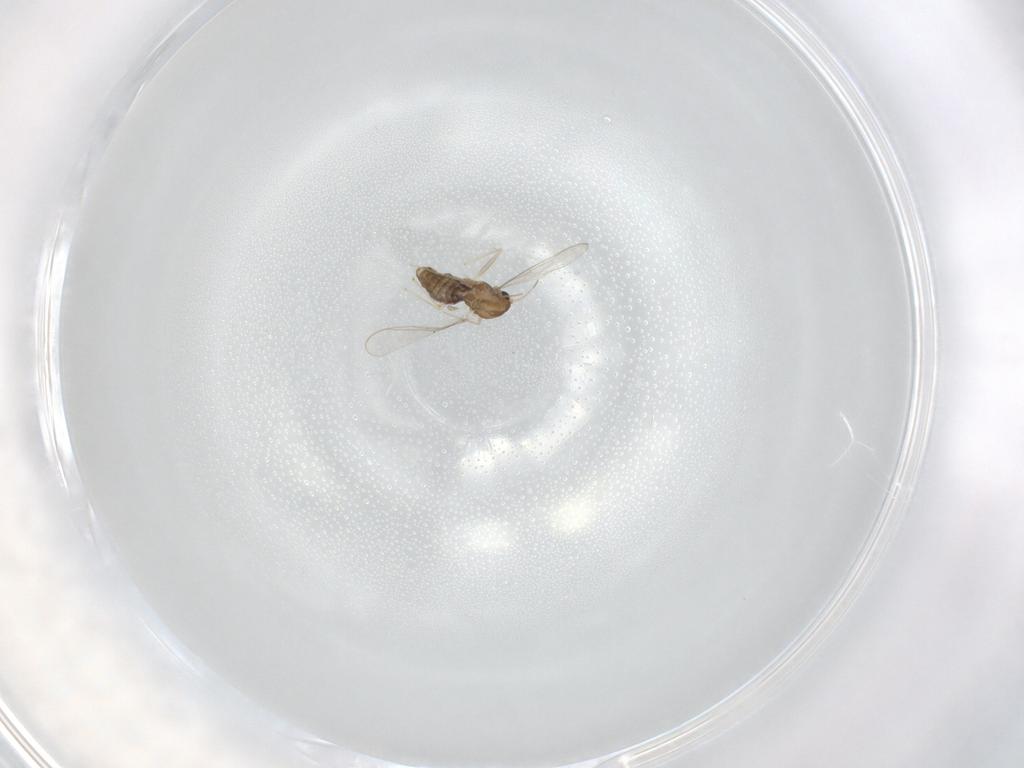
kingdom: Animalia
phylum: Arthropoda
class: Insecta
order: Diptera
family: Chironomidae
